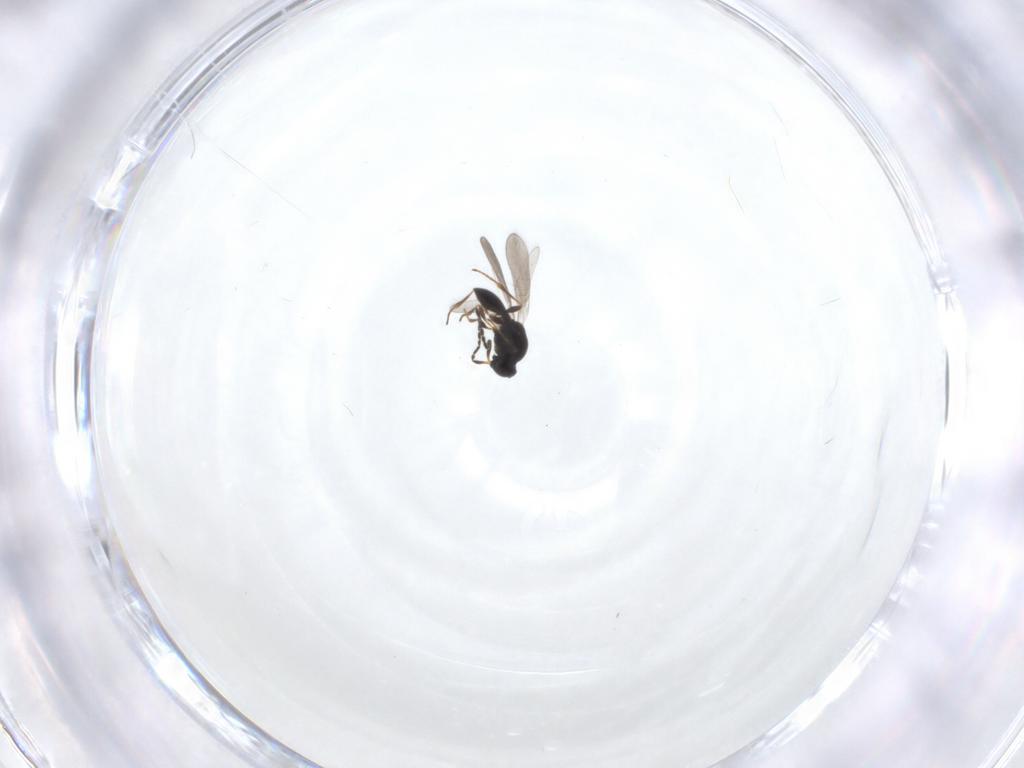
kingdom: Animalia
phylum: Arthropoda
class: Insecta
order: Hymenoptera
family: Platygastridae
